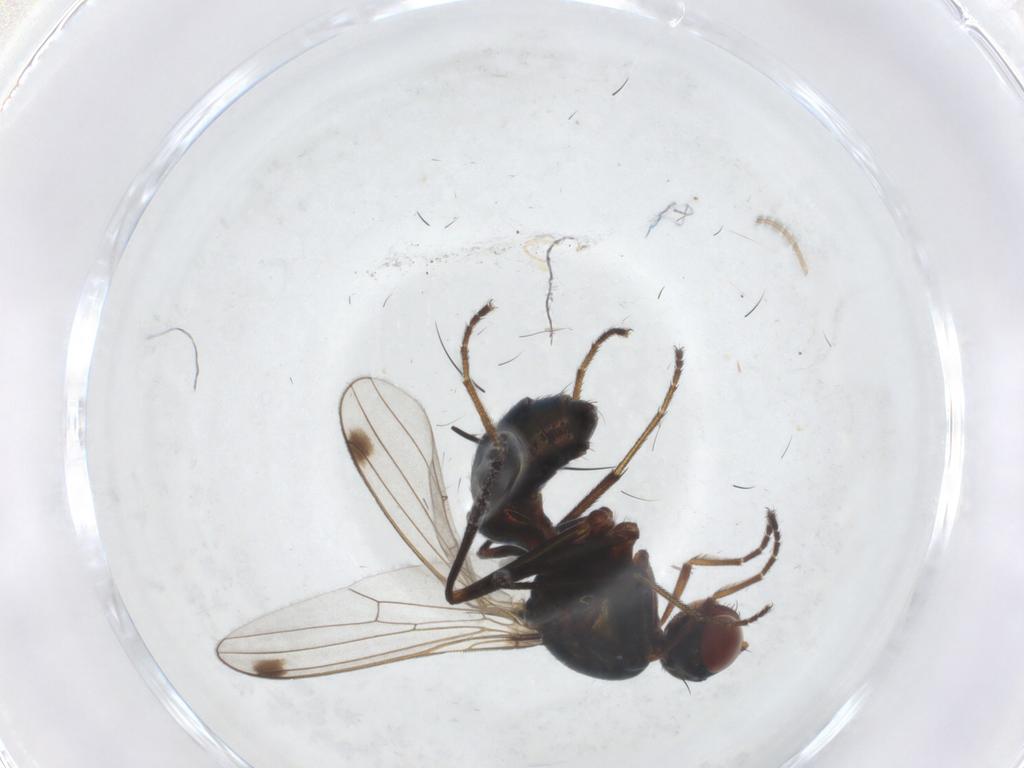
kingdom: Animalia
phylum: Arthropoda
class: Insecta
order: Diptera
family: Sepsidae
